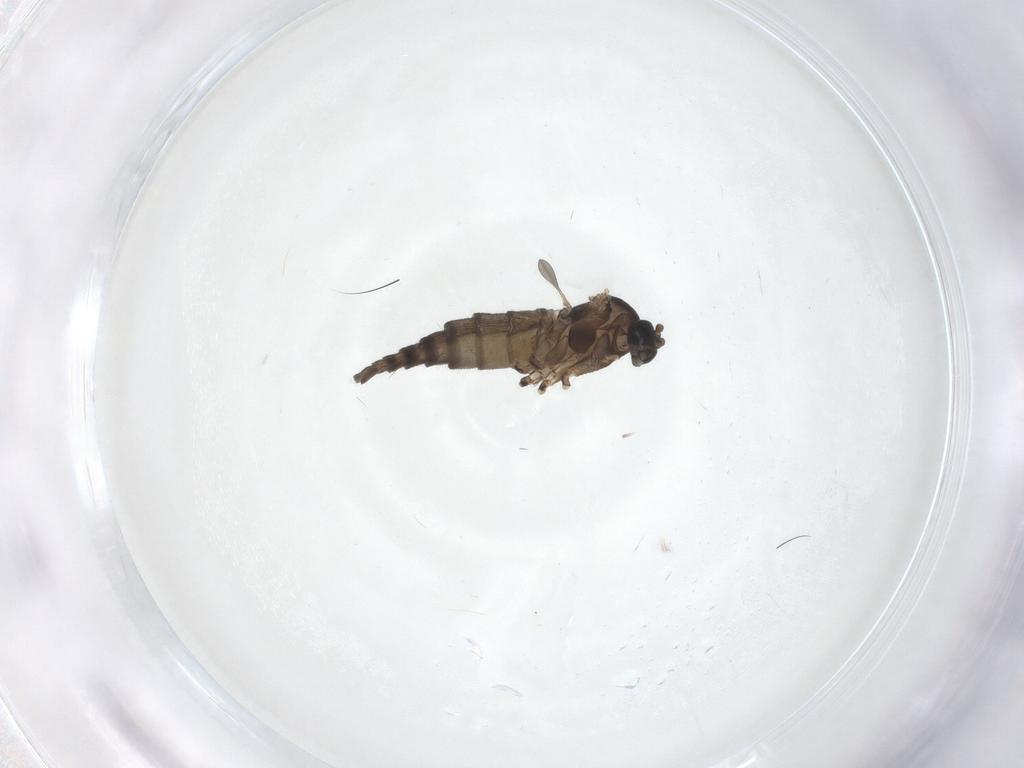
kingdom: Animalia
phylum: Arthropoda
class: Insecta
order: Diptera
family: Sciaridae
